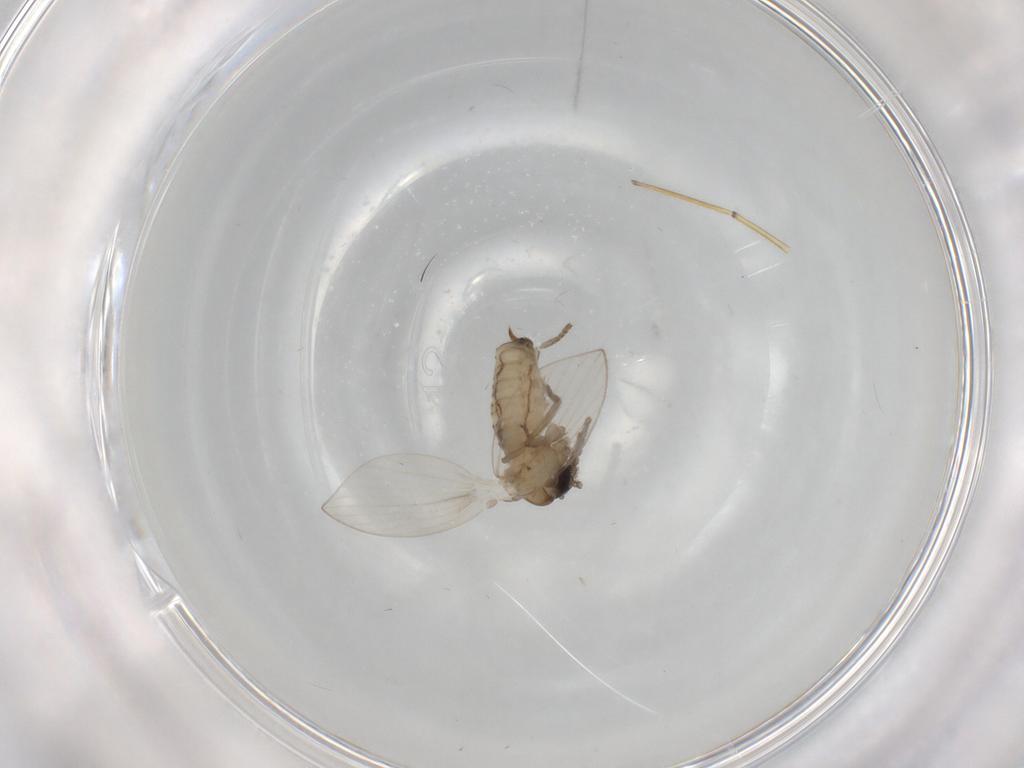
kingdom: Animalia
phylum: Arthropoda
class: Insecta
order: Diptera
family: Psychodidae
